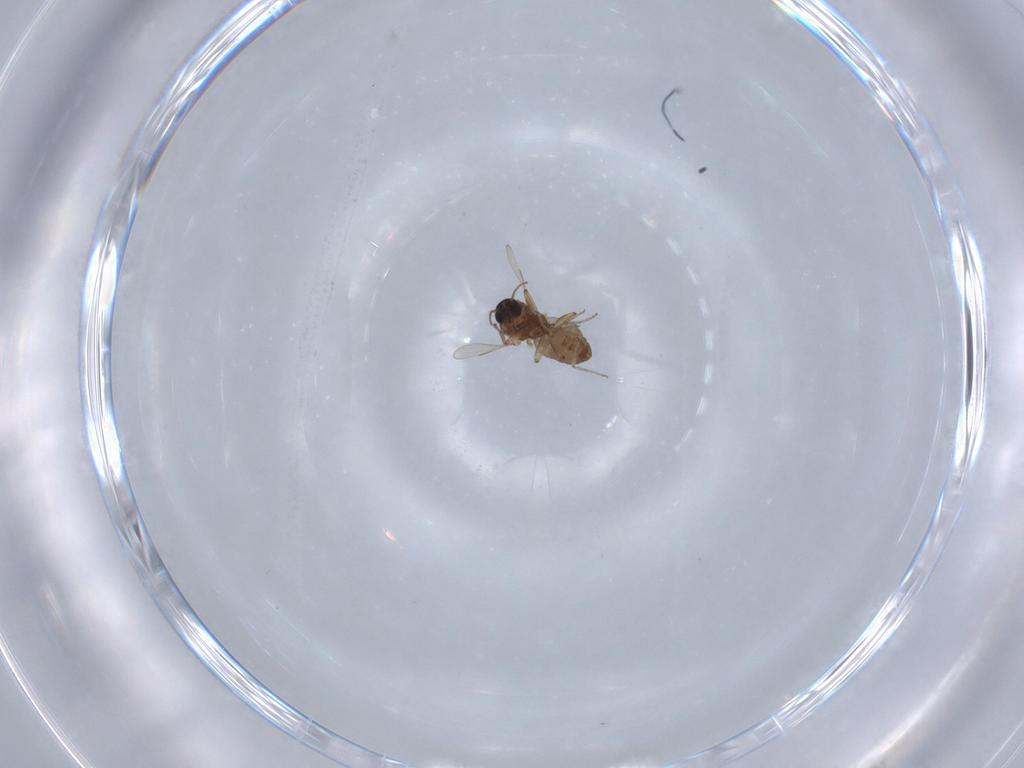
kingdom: Animalia
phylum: Arthropoda
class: Insecta
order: Diptera
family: Ceratopogonidae
